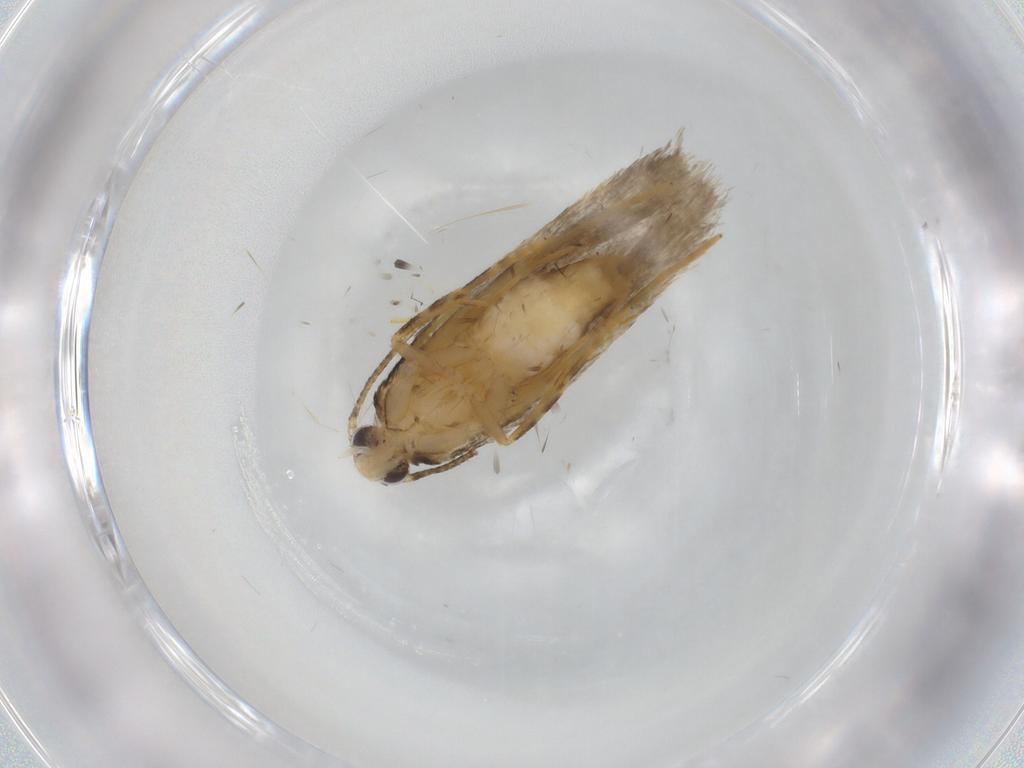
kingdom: Animalia
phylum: Arthropoda
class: Insecta
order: Lepidoptera
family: Autostichidae
